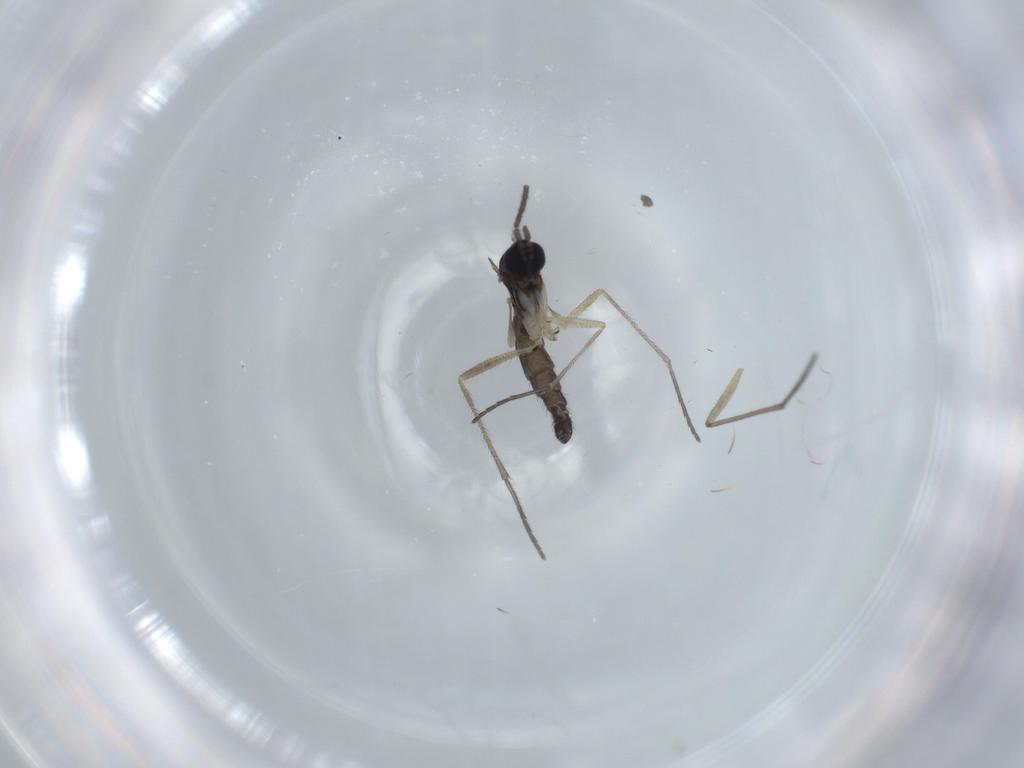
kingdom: Animalia
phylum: Arthropoda
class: Insecta
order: Diptera
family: Sciaridae
